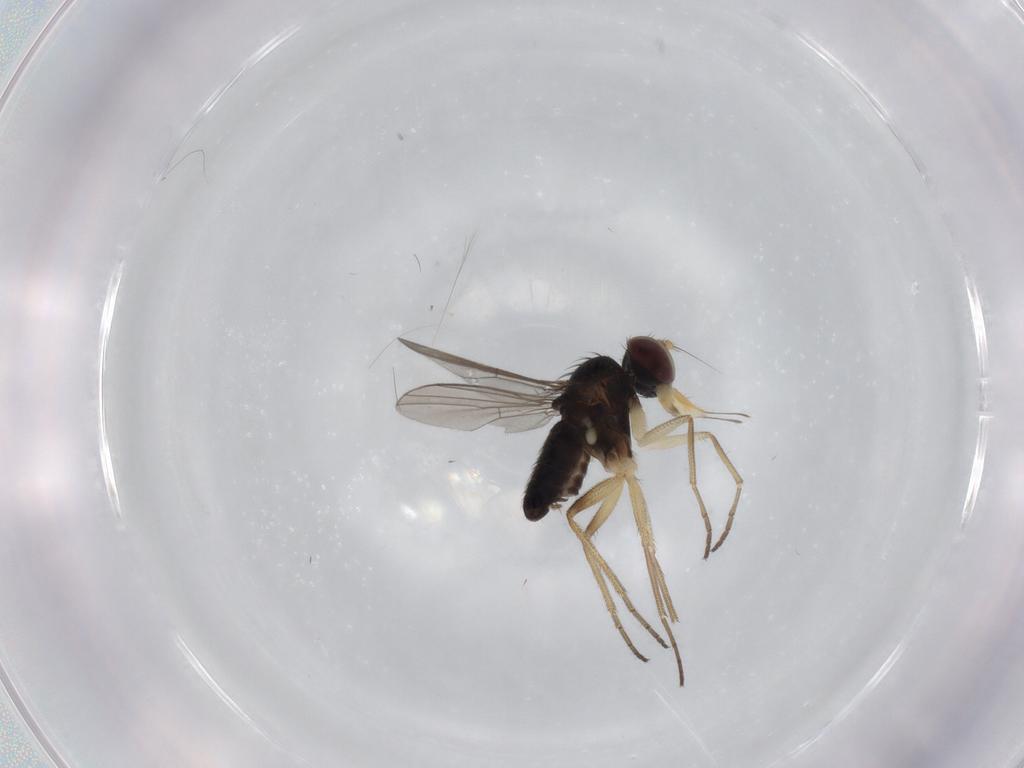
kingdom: Animalia
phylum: Arthropoda
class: Insecta
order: Diptera
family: Dolichopodidae
